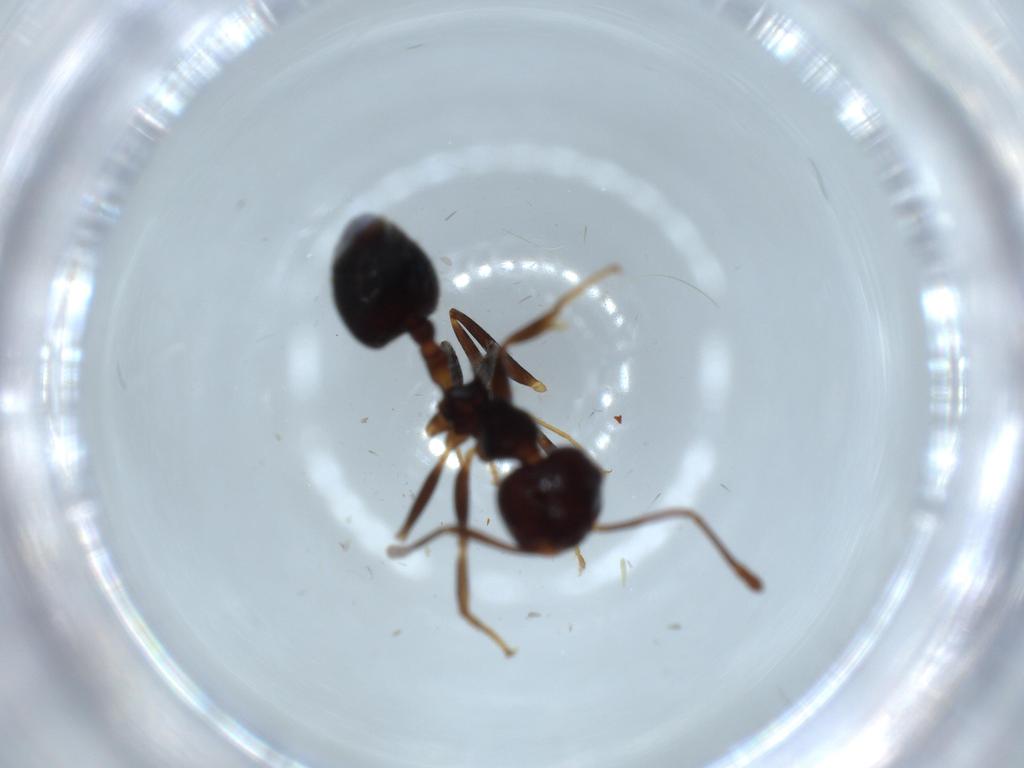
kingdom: Animalia
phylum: Arthropoda
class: Insecta
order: Hymenoptera
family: Formicidae
